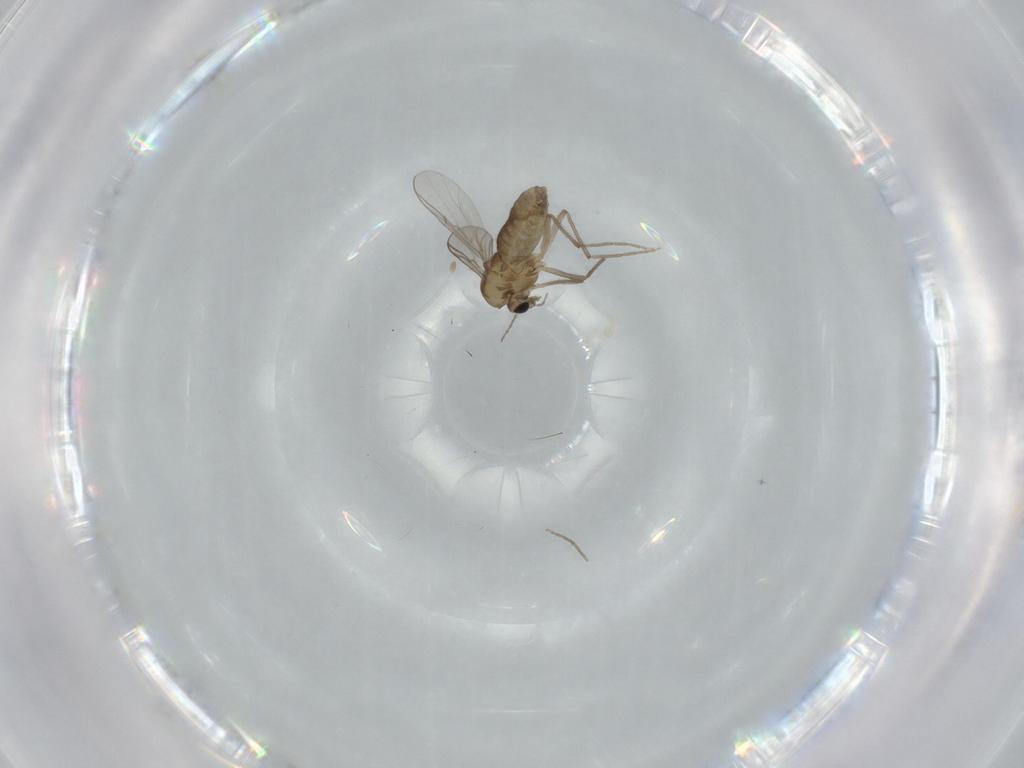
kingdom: Animalia
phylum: Arthropoda
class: Insecta
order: Diptera
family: Chironomidae
